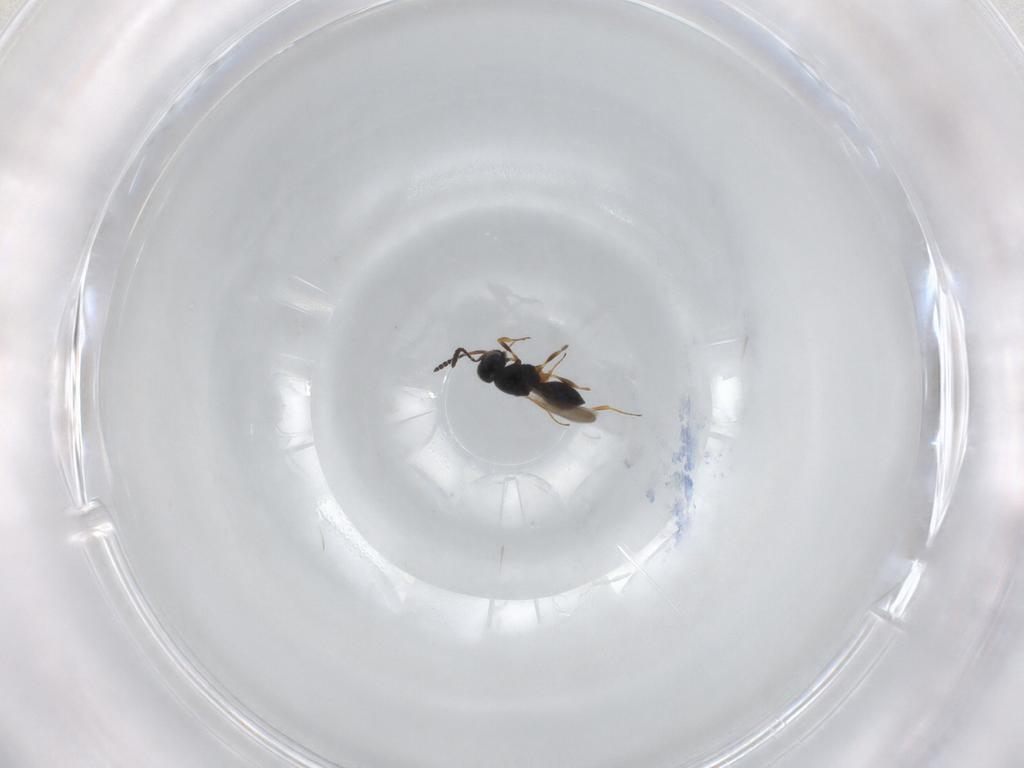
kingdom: Animalia
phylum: Arthropoda
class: Insecta
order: Hymenoptera
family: Scelionidae
